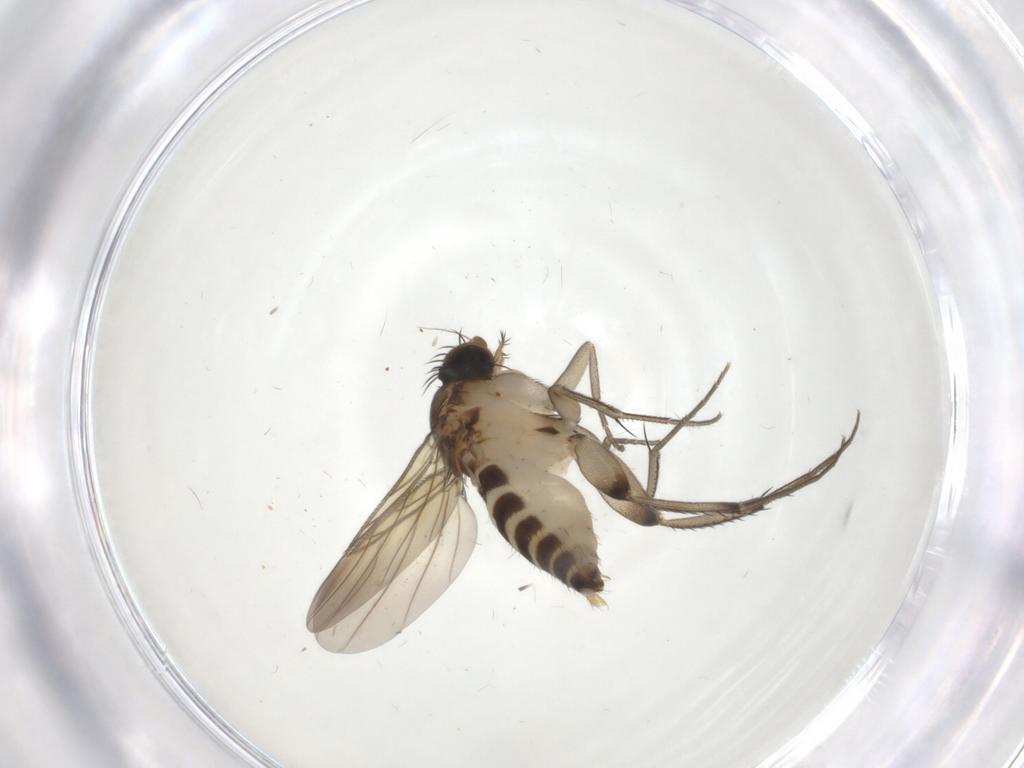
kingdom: Animalia
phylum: Arthropoda
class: Insecta
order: Diptera
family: Phoridae
